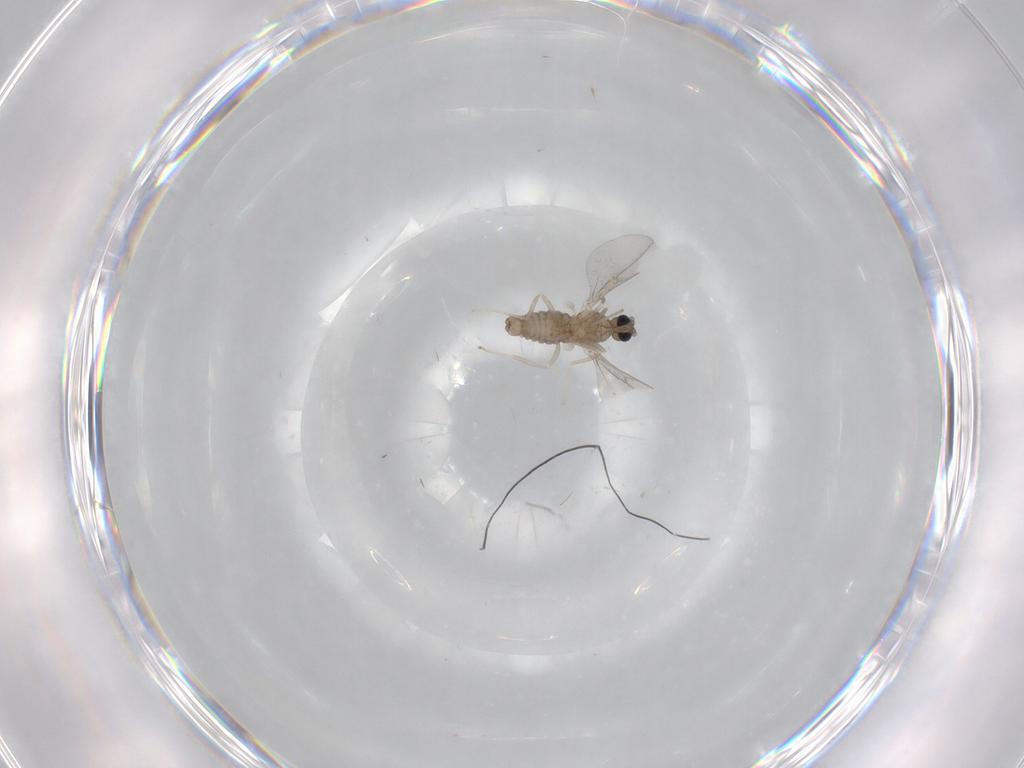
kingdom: Animalia
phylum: Arthropoda
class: Insecta
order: Diptera
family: Cecidomyiidae
